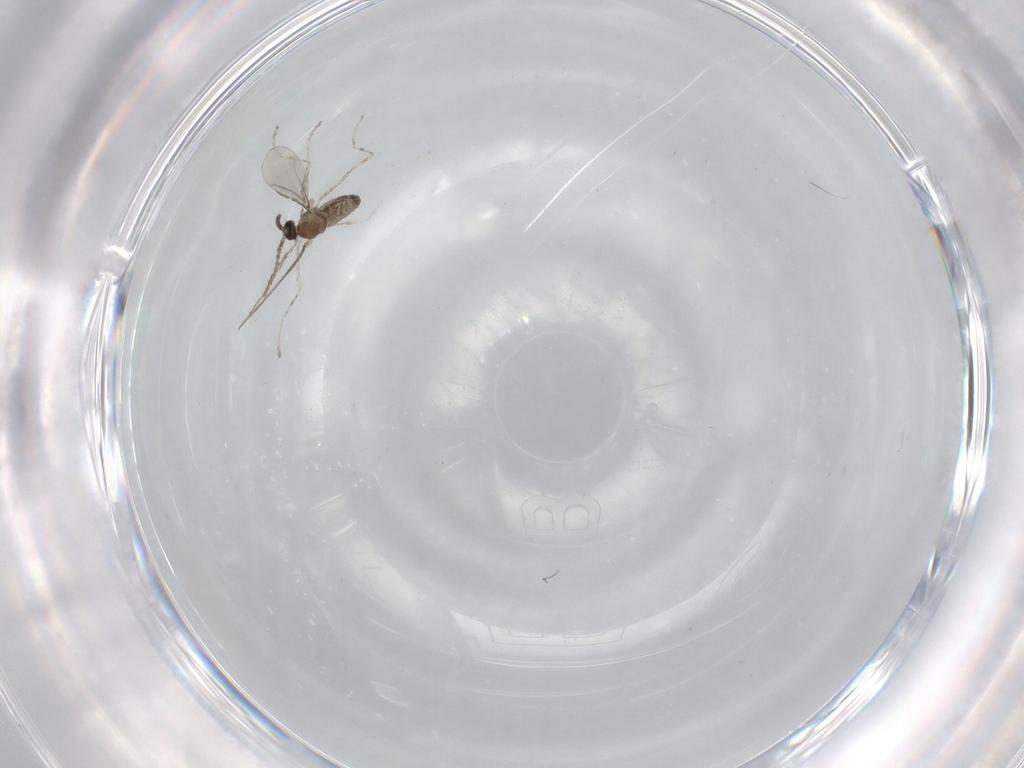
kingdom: Animalia
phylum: Arthropoda
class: Insecta
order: Diptera
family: Cecidomyiidae
